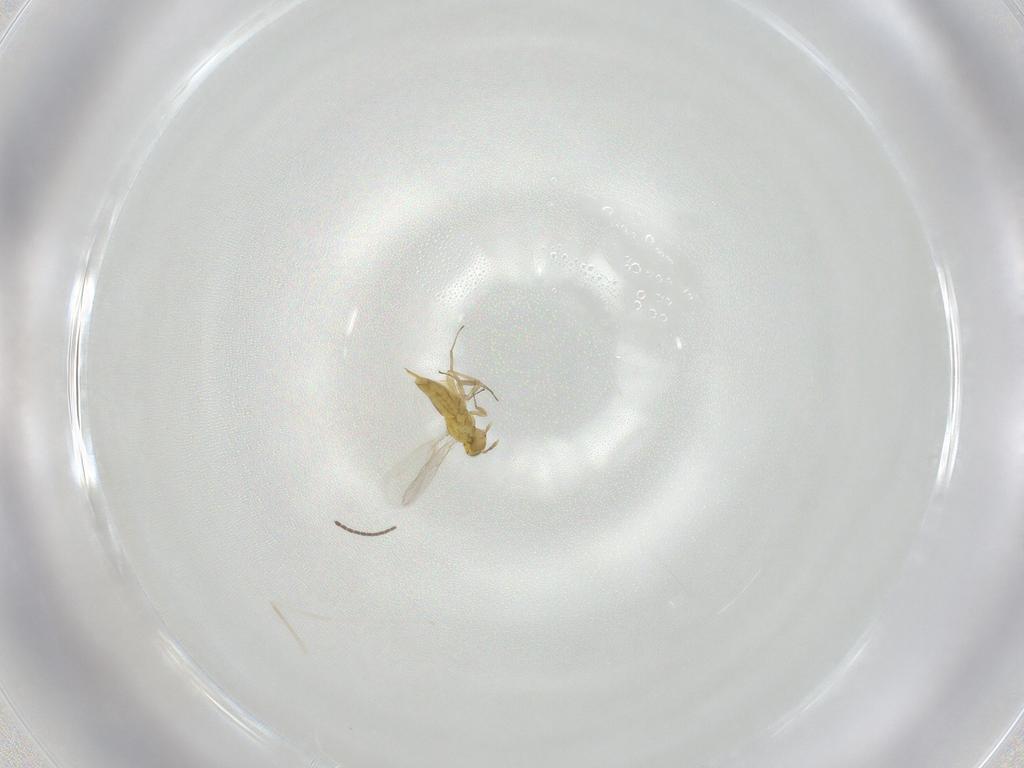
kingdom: Animalia
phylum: Arthropoda
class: Insecta
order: Hymenoptera
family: Aphelinidae
